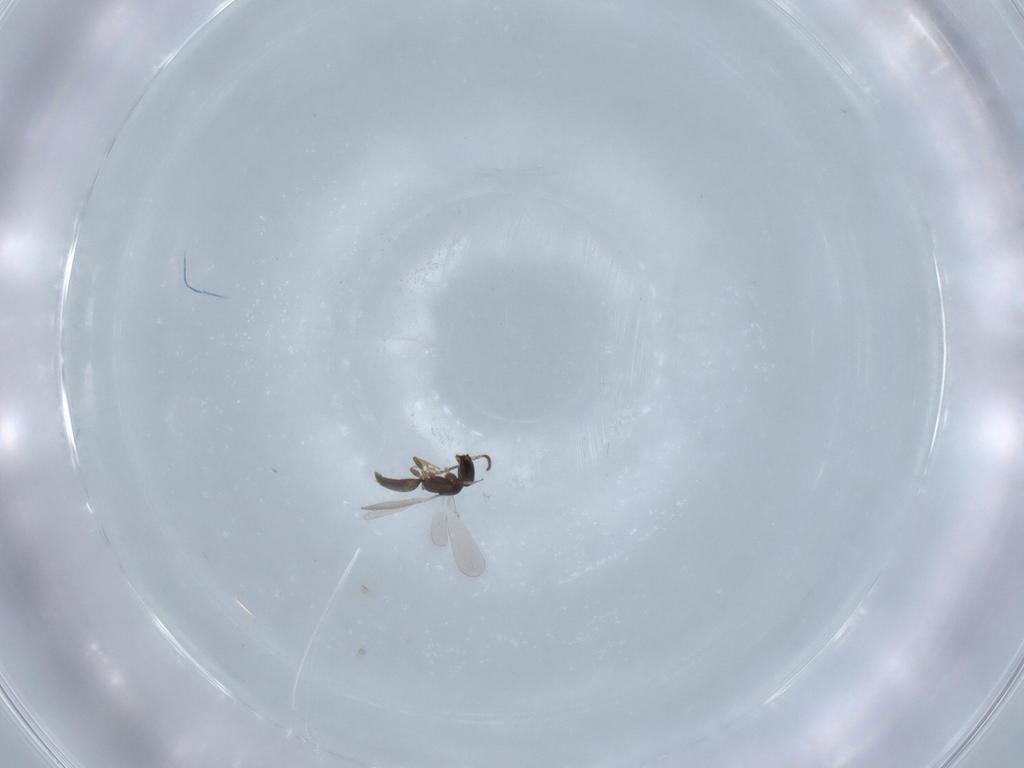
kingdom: Animalia
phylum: Arthropoda
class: Insecta
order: Hymenoptera
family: Bethylidae
